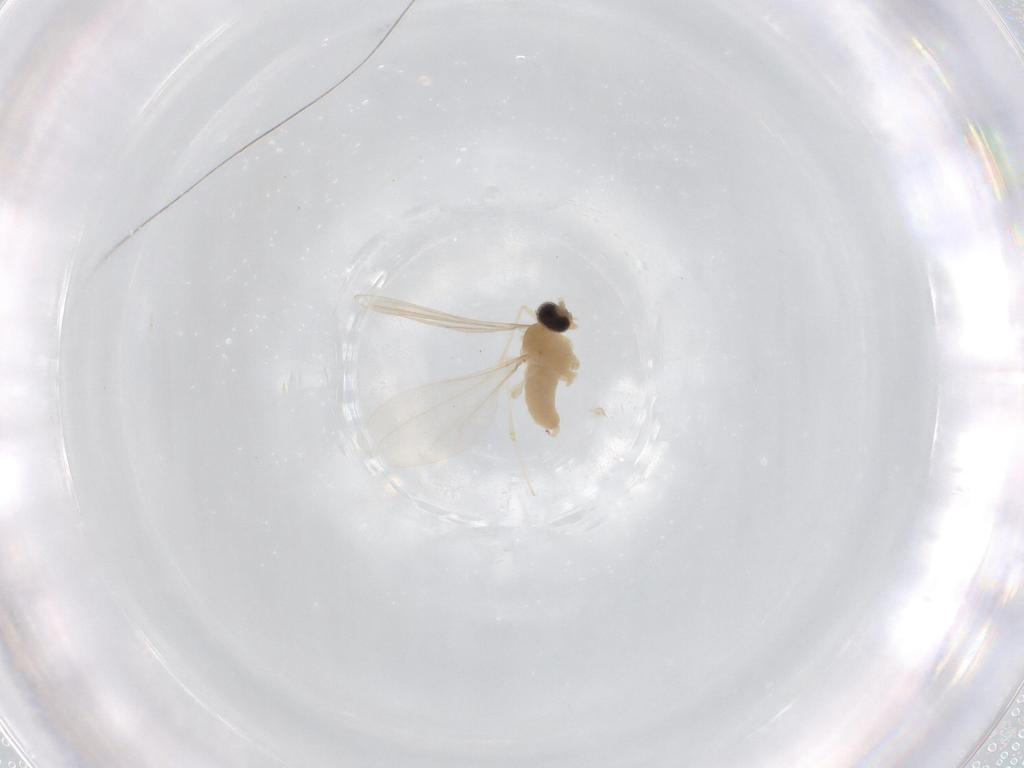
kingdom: Animalia
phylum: Arthropoda
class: Insecta
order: Diptera
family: Cecidomyiidae
